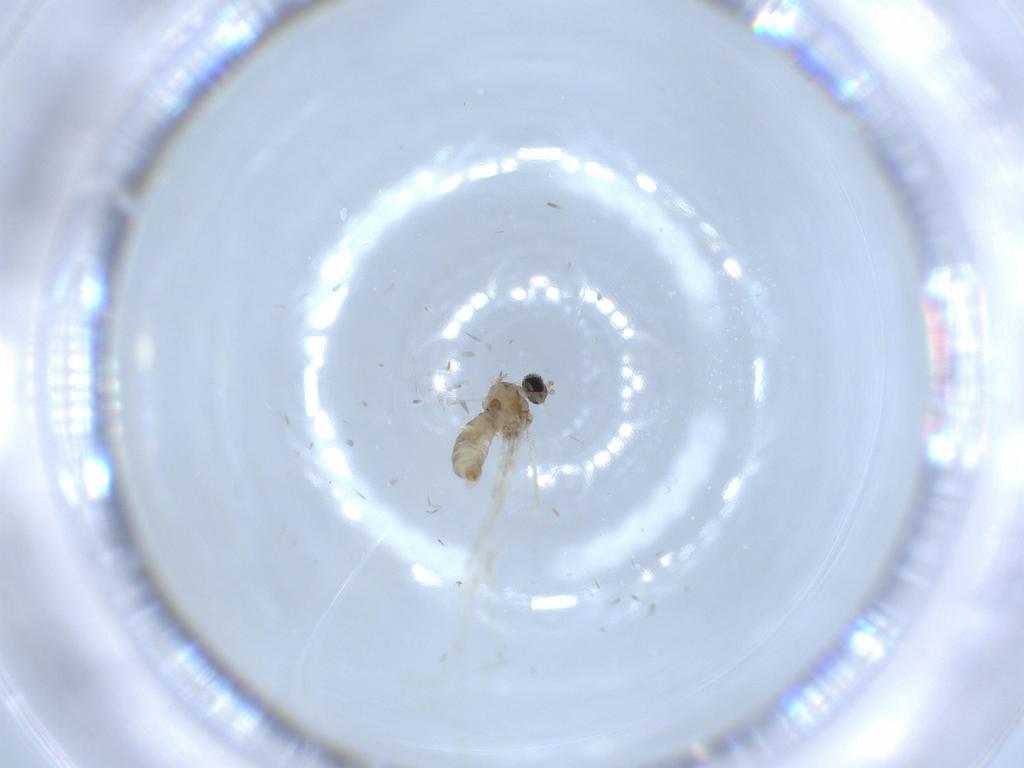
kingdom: Animalia
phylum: Arthropoda
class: Insecta
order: Diptera
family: Cecidomyiidae
